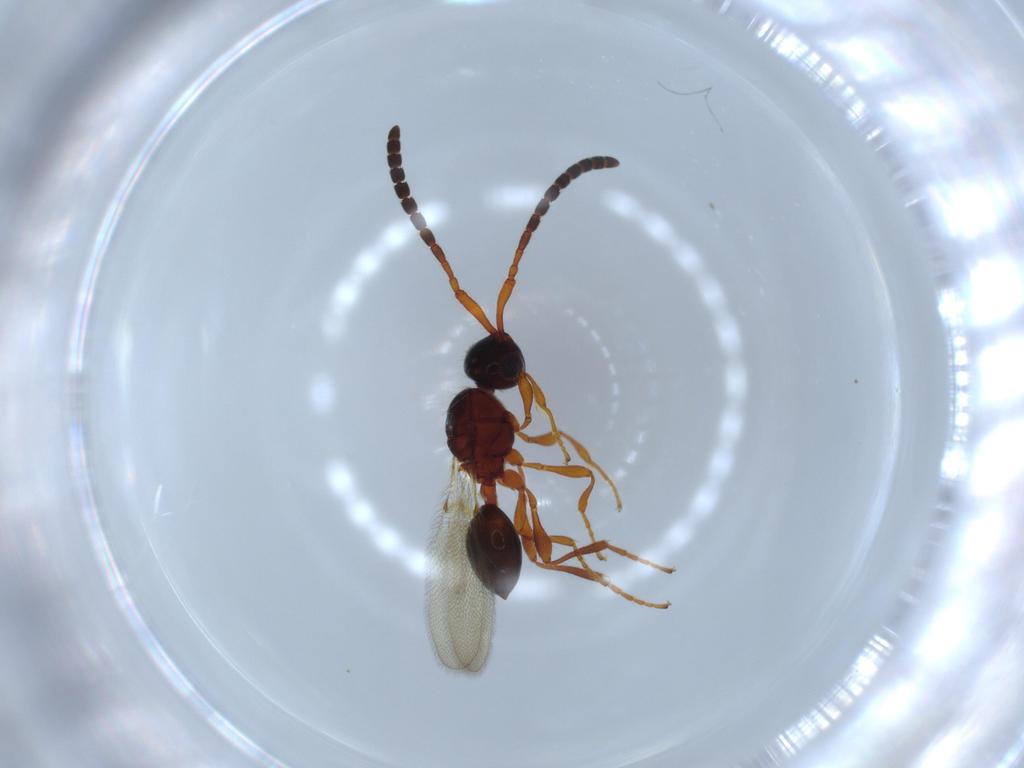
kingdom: Animalia
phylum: Arthropoda
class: Insecta
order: Hymenoptera
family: Diapriidae
